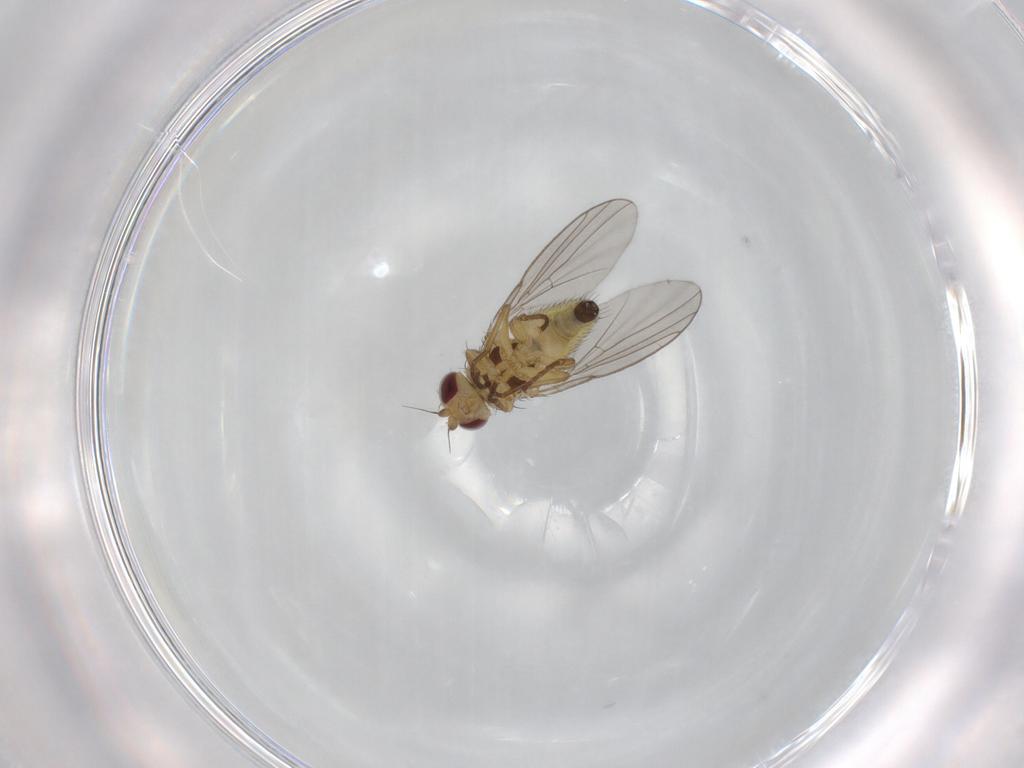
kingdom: Animalia
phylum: Arthropoda
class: Insecta
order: Diptera
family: Agromyzidae
